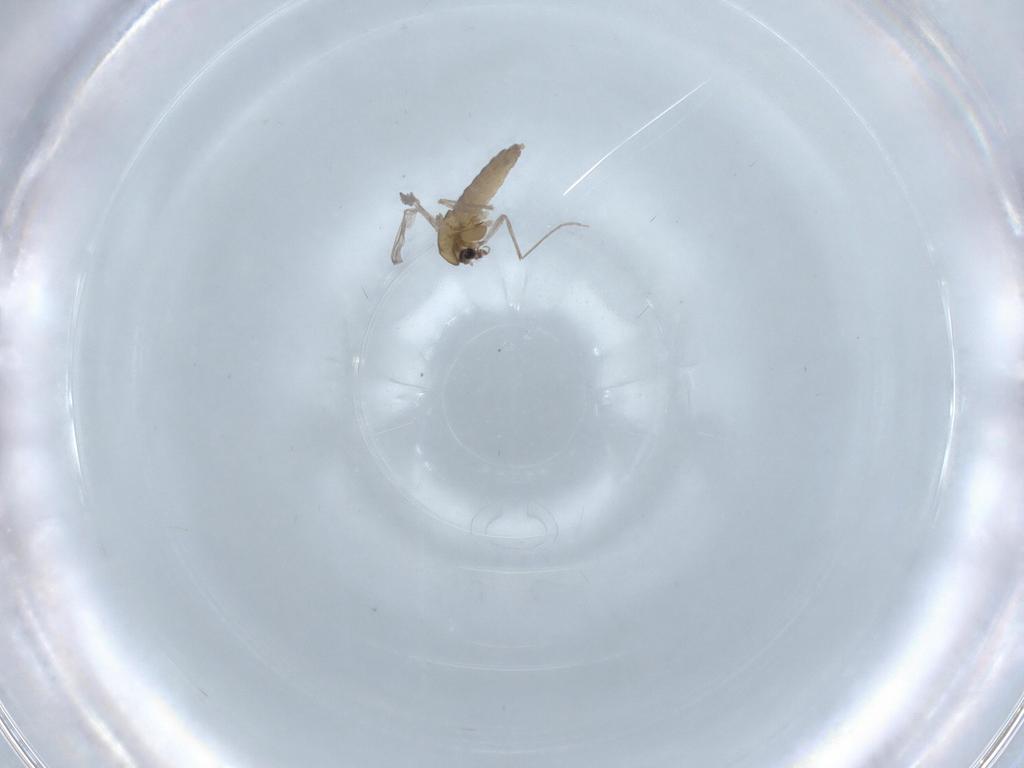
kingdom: Animalia
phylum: Arthropoda
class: Insecta
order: Diptera
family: Chironomidae
